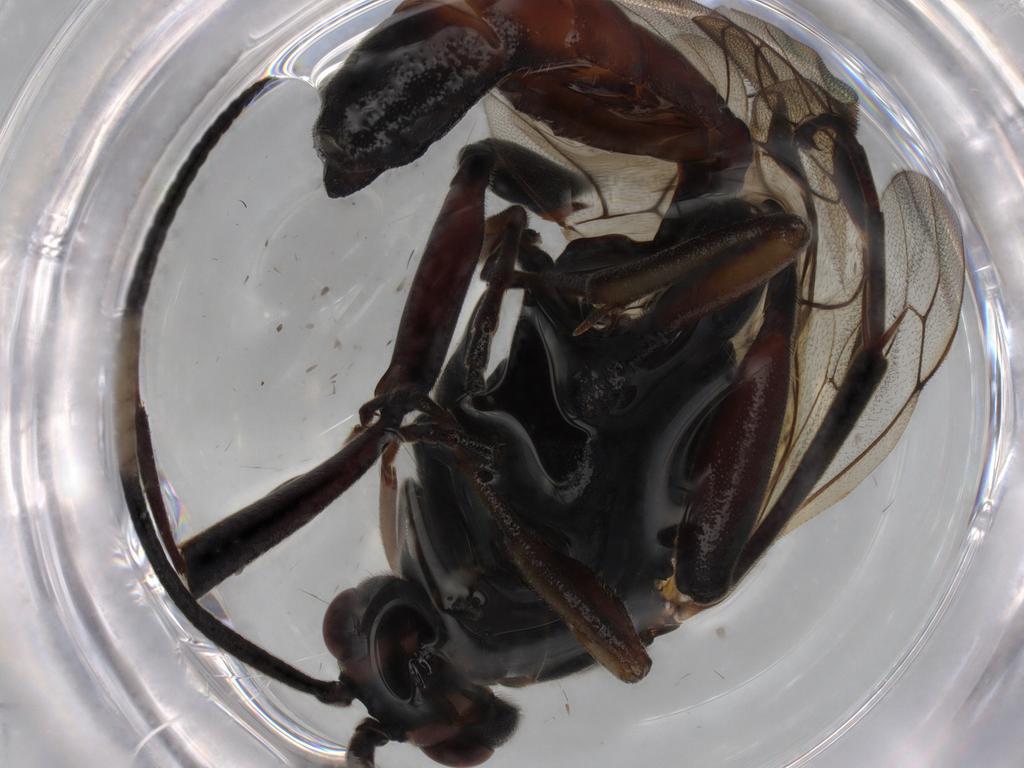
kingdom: Animalia
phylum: Arthropoda
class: Insecta
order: Hymenoptera
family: Ichneumonidae
